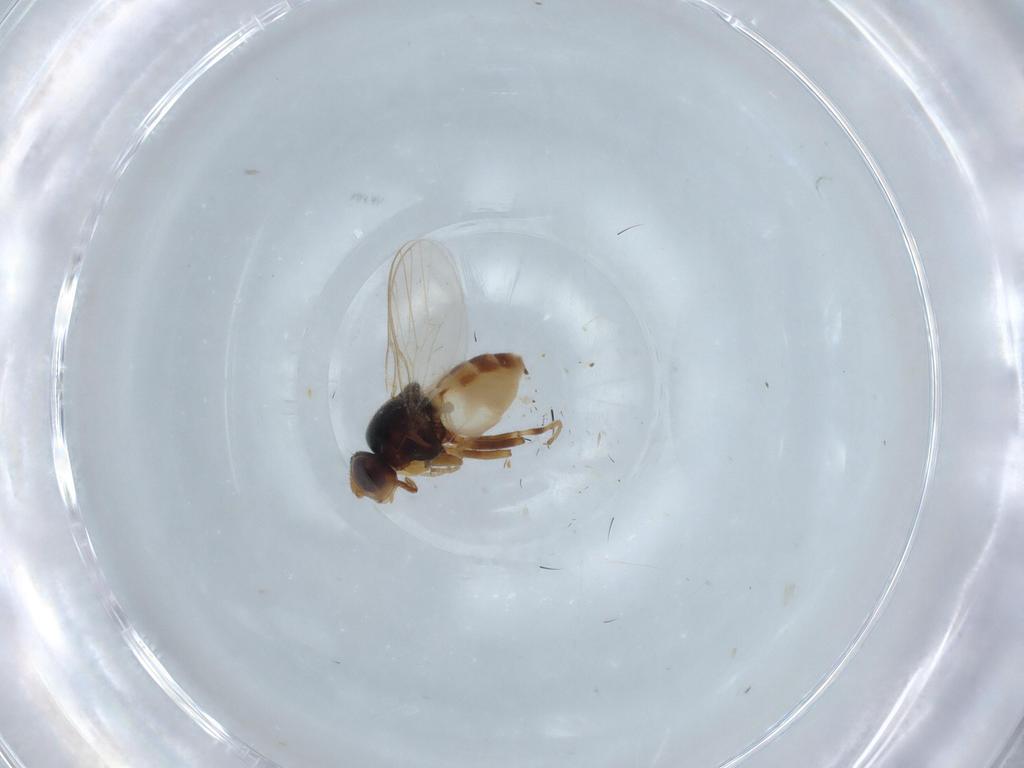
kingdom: Animalia
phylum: Arthropoda
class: Insecta
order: Diptera
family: Chloropidae
